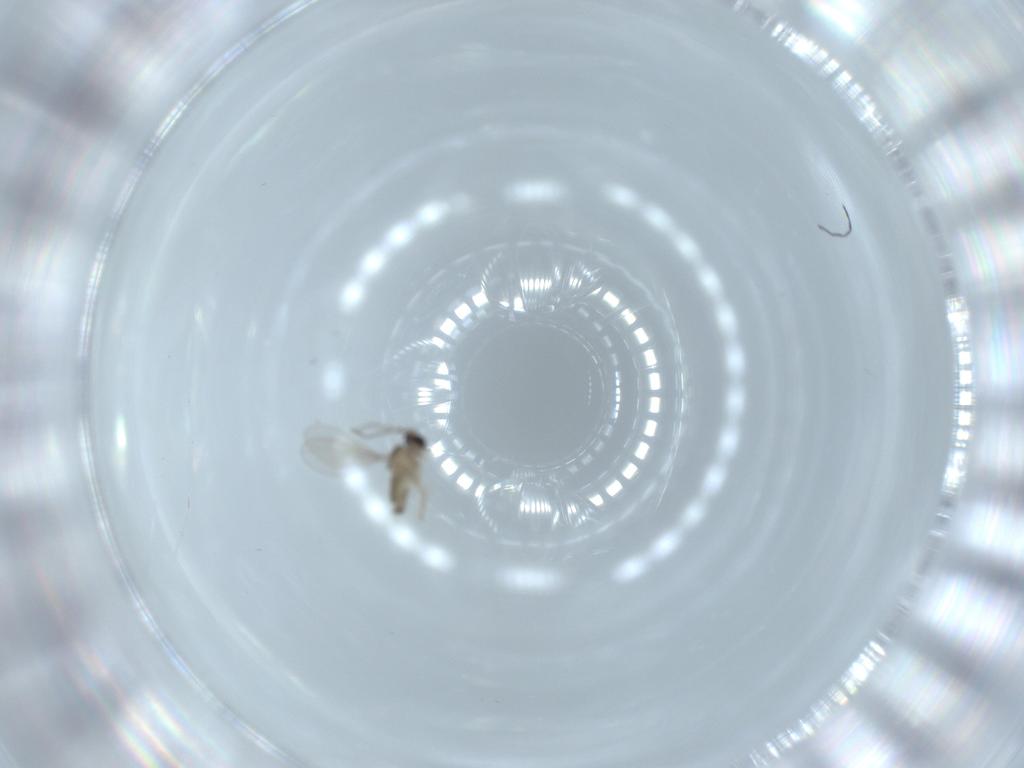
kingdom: Animalia
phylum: Arthropoda
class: Insecta
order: Diptera
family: Cecidomyiidae
